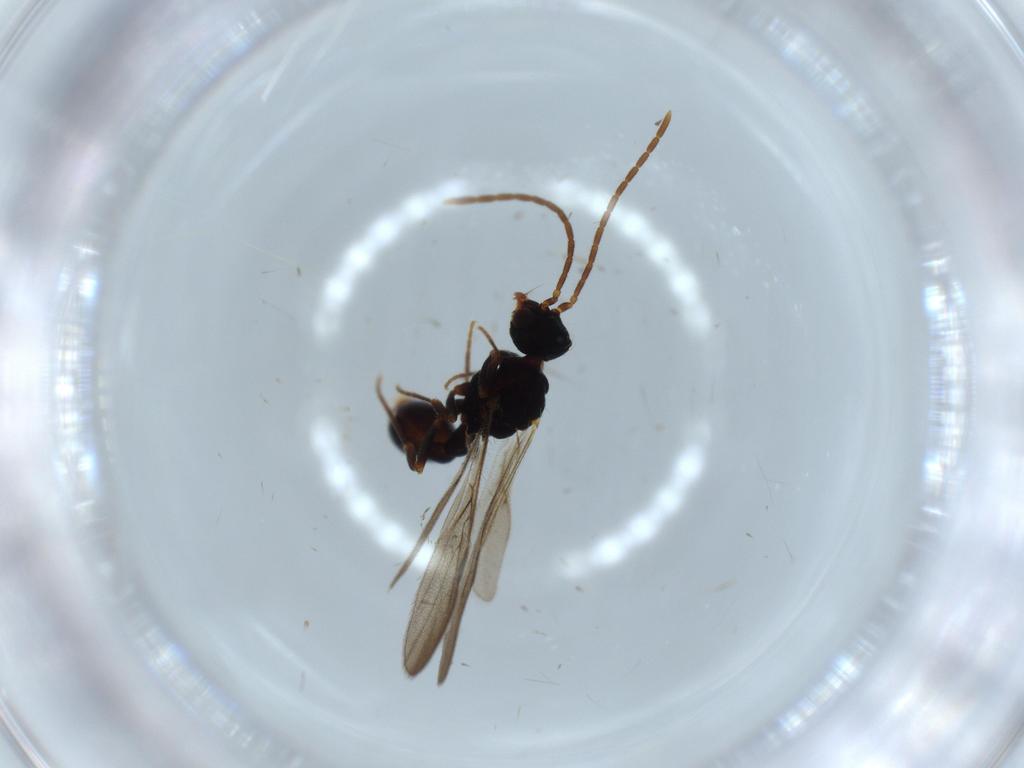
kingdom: Animalia
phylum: Arthropoda
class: Insecta
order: Hymenoptera
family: Formicidae
